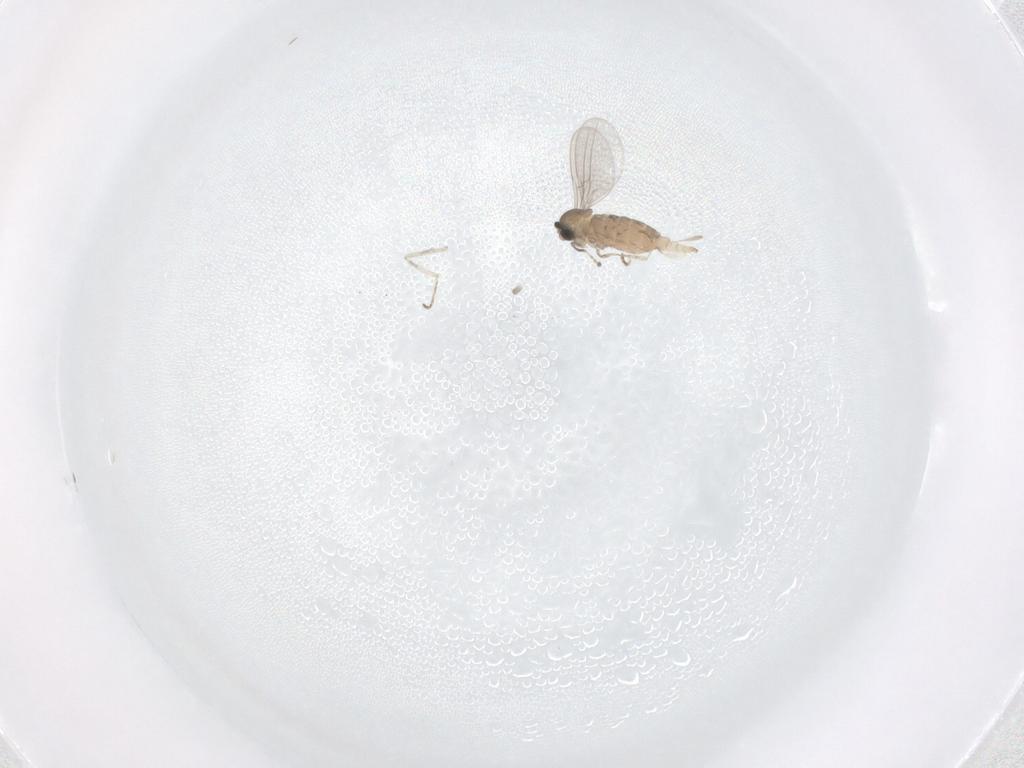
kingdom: Animalia
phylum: Arthropoda
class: Insecta
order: Diptera
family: Cecidomyiidae
